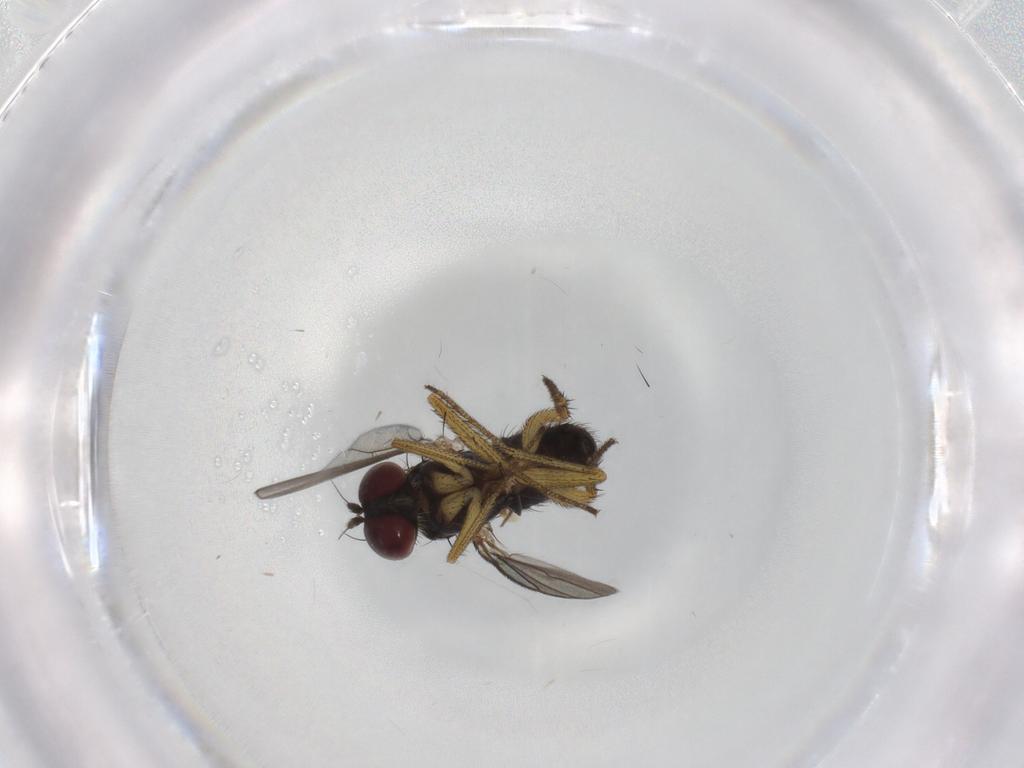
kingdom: Animalia
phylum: Arthropoda
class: Insecta
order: Diptera
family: Dolichopodidae
